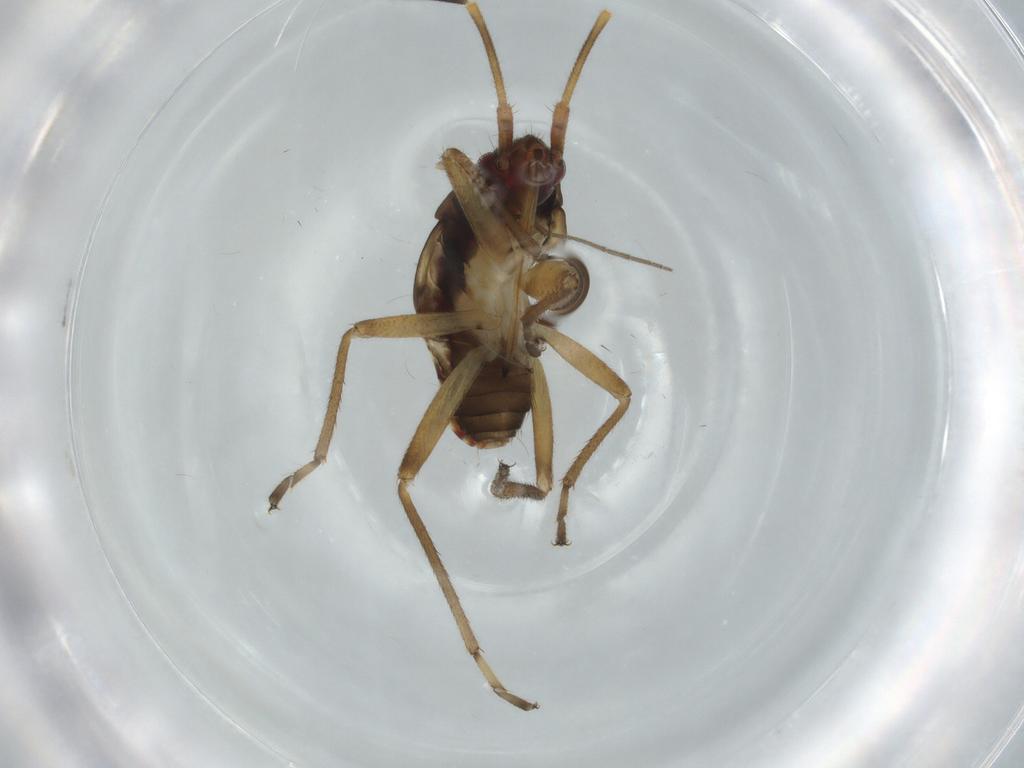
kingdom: Animalia
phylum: Arthropoda
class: Insecta
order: Hemiptera
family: Rhyparochromidae
